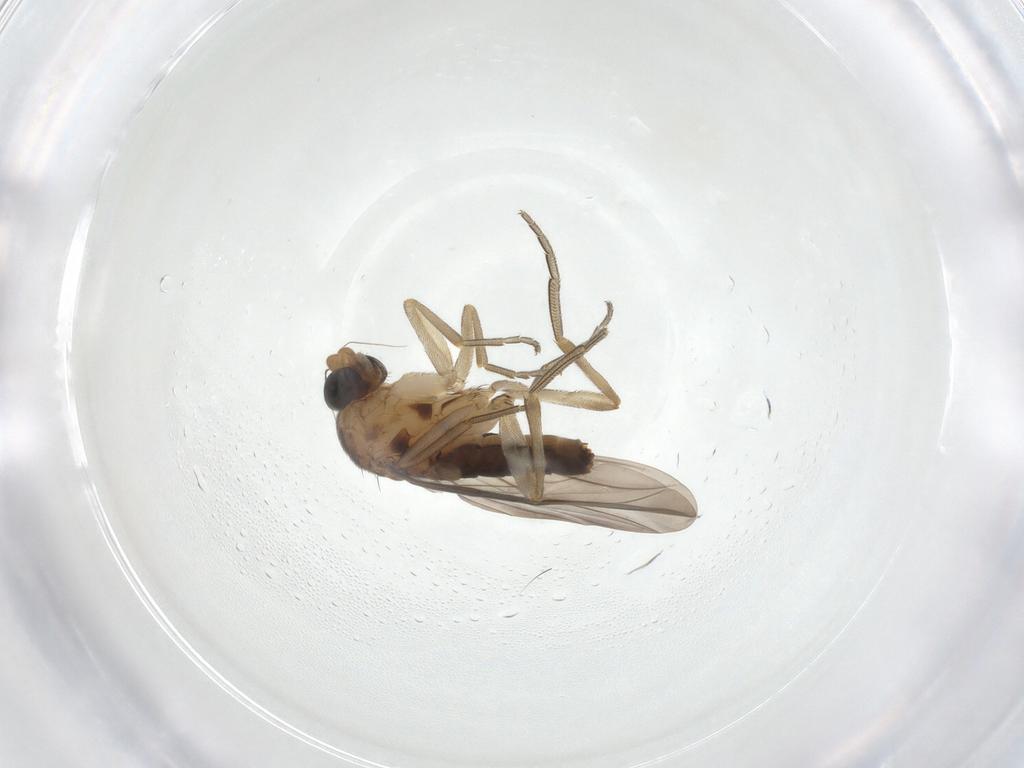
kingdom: Animalia
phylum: Arthropoda
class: Insecta
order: Diptera
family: Phoridae
